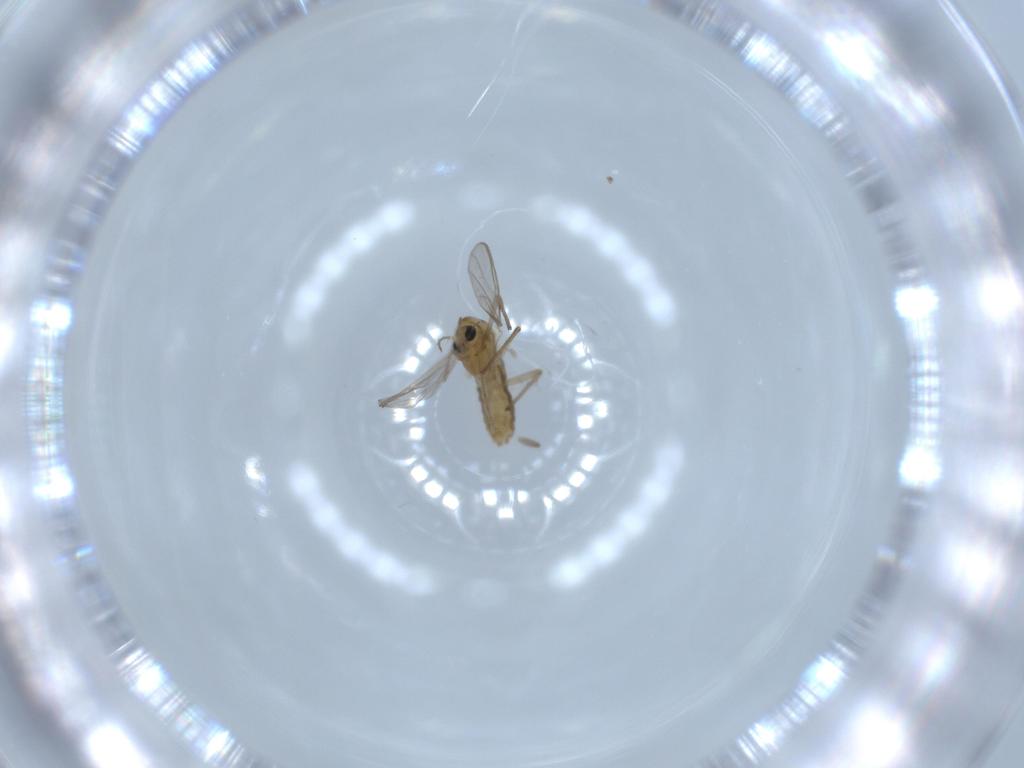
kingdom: Animalia
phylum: Arthropoda
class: Insecta
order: Diptera
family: Chironomidae
